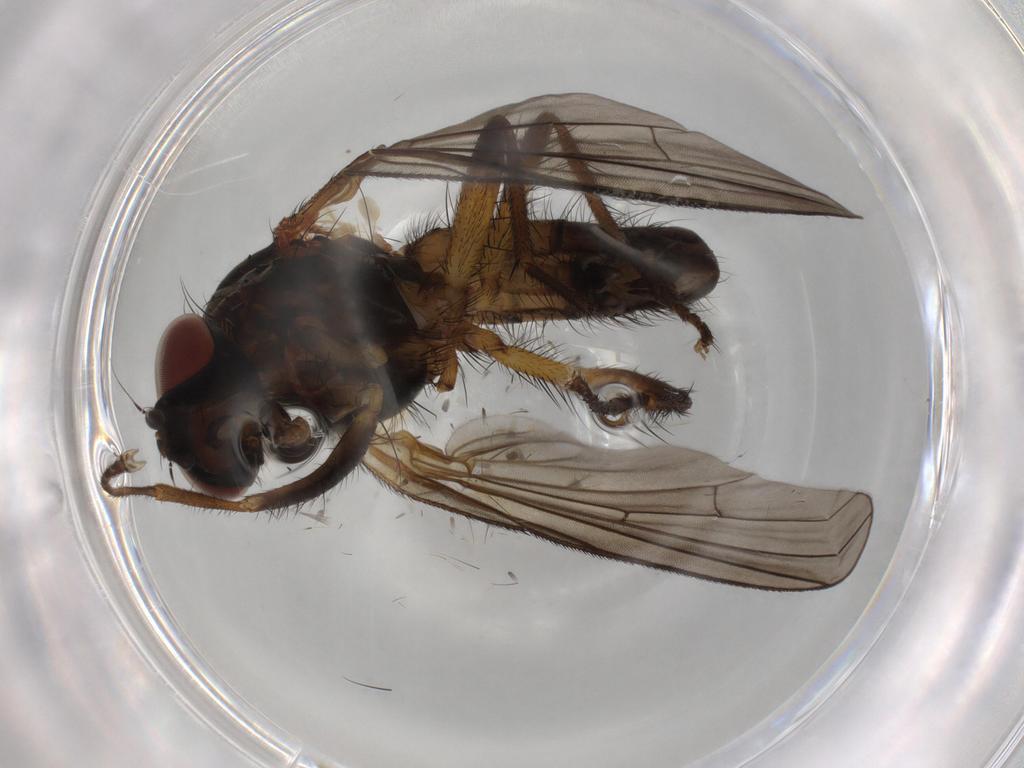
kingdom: Animalia
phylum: Arthropoda
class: Insecta
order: Diptera
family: Anthomyiidae
